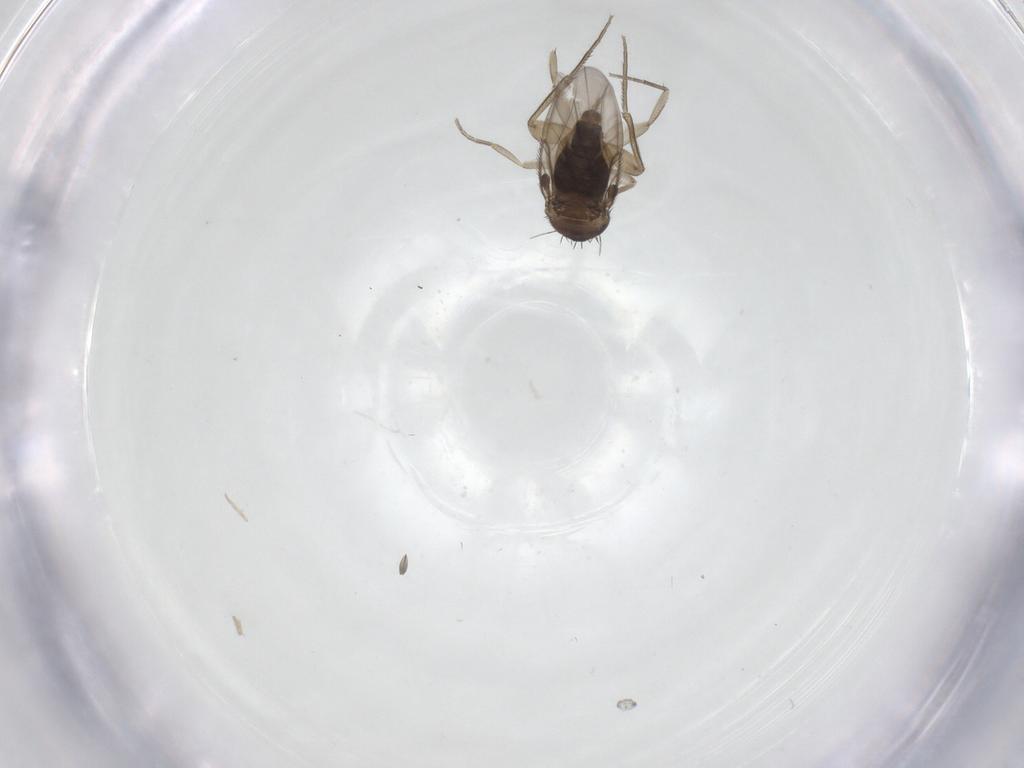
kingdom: Animalia
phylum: Arthropoda
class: Insecta
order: Diptera
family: Phoridae
